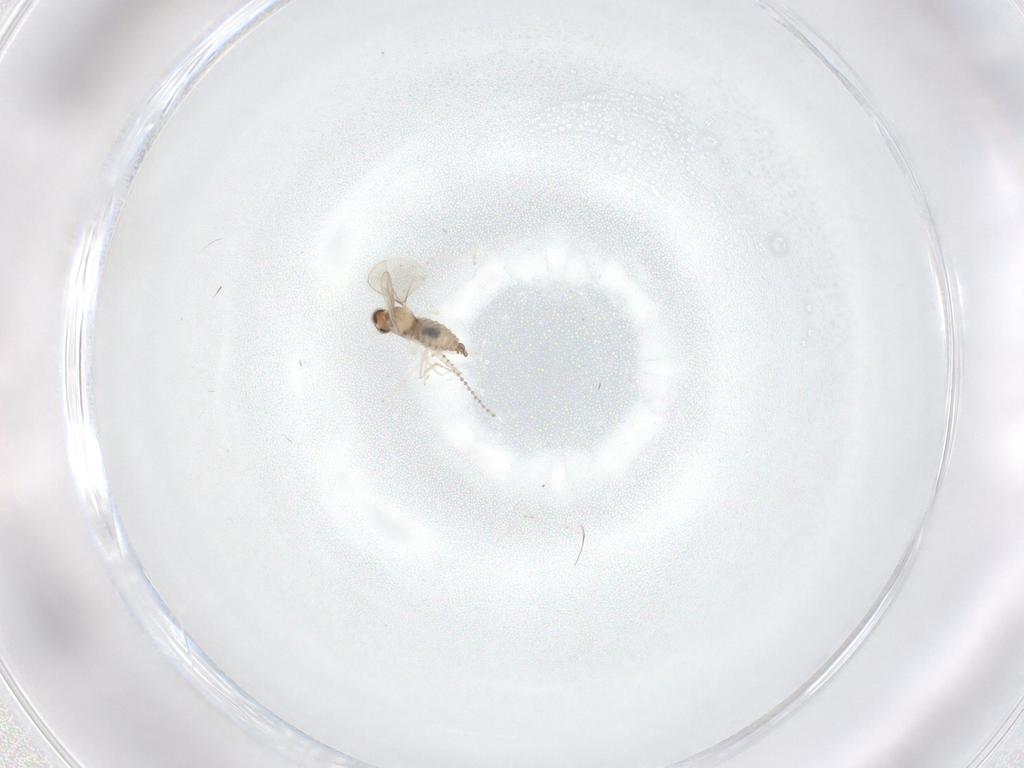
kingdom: Animalia
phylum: Arthropoda
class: Insecta
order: Diptera
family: Cecidomyiidae
